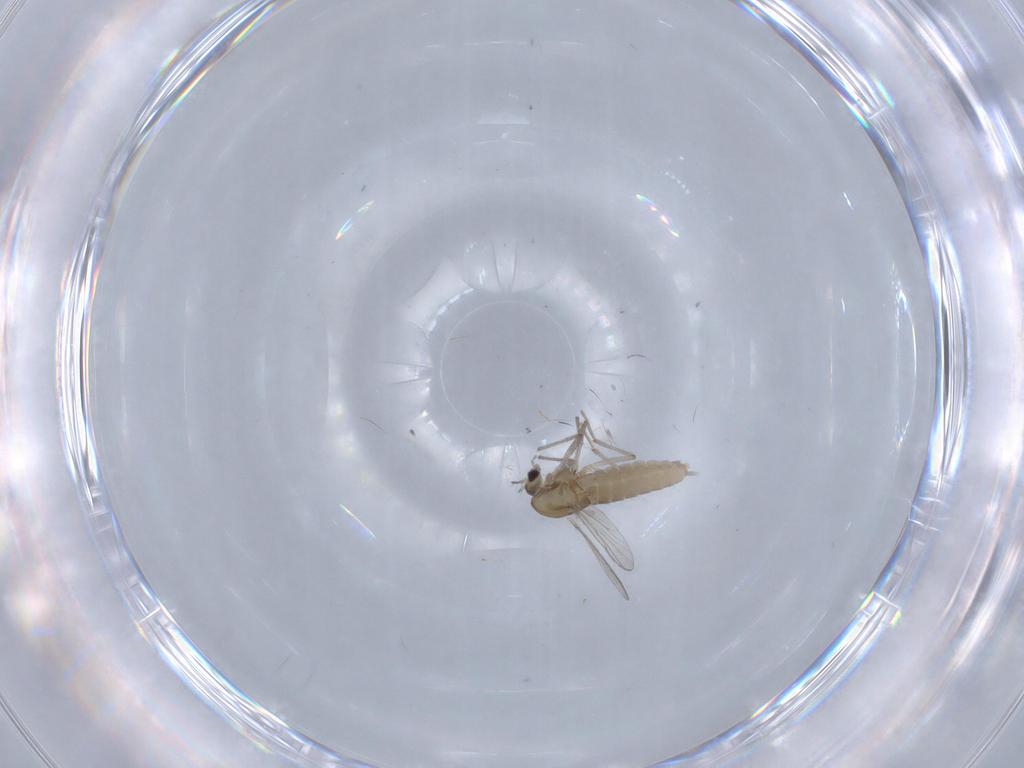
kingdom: Animalia
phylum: Arthropoda
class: Insecta
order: Diptera
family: Chironomidae
